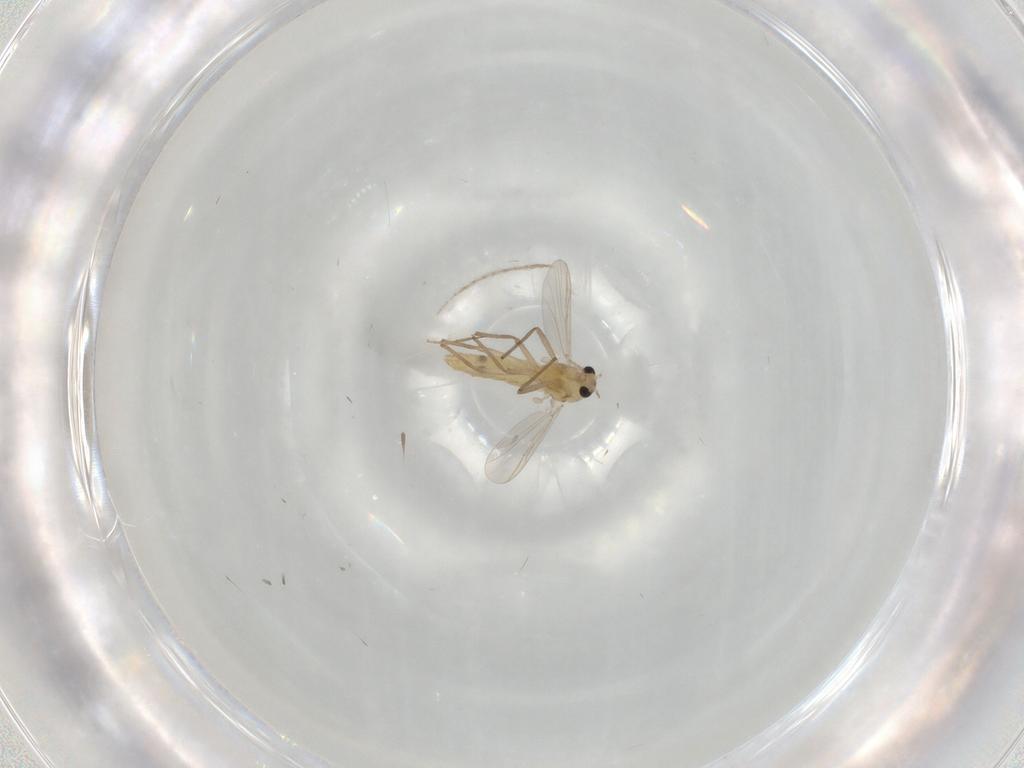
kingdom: Animalia
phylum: Arthropoda
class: Insecta
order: Diptera
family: Chironomidae
